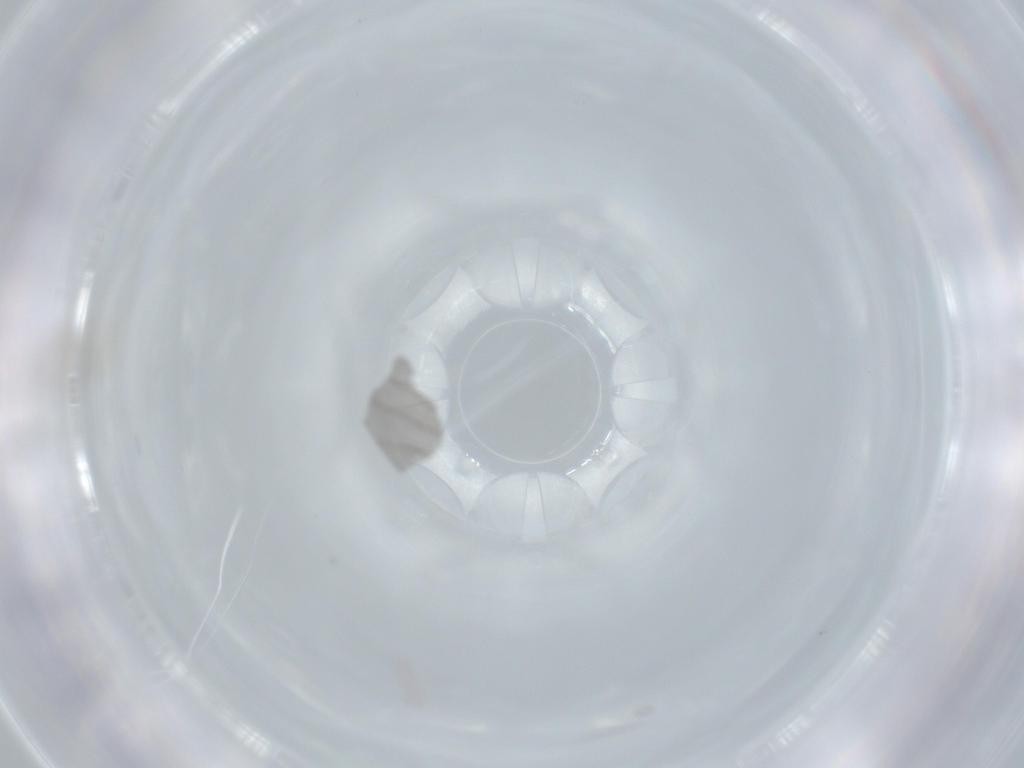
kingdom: Animalia
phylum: Arthropoda
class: Insecta
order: Diptera
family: Cecidomyiidae
